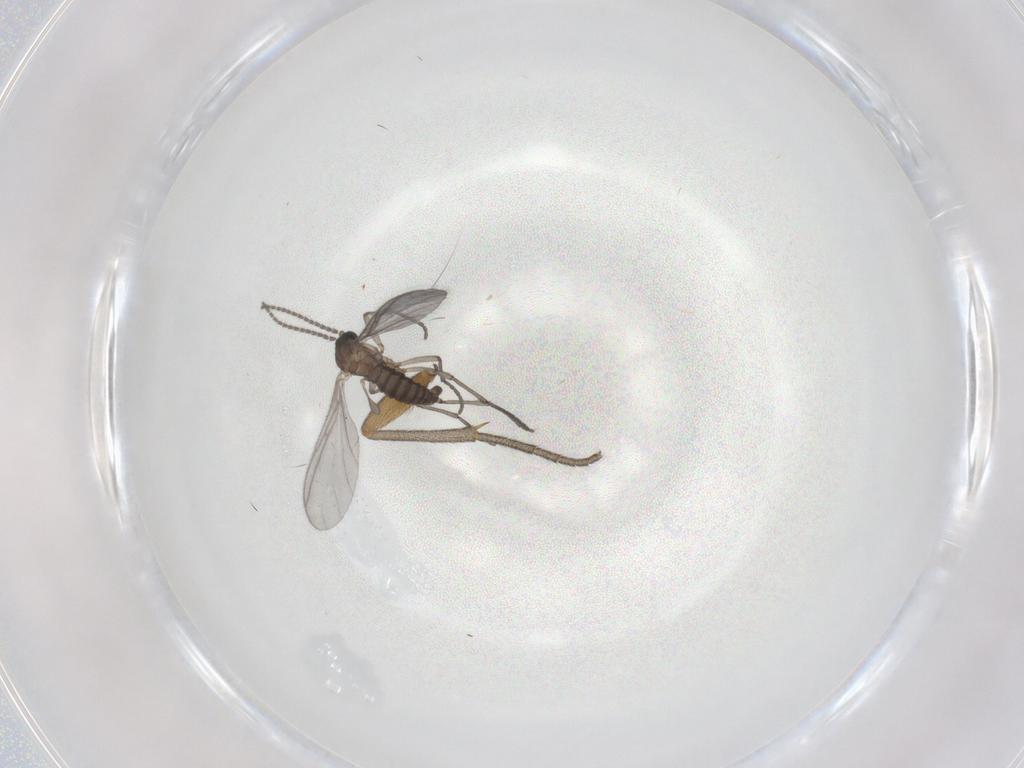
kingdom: Animalia
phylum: Arthropoda
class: Insecta
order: Diptera
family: Sciaridae
